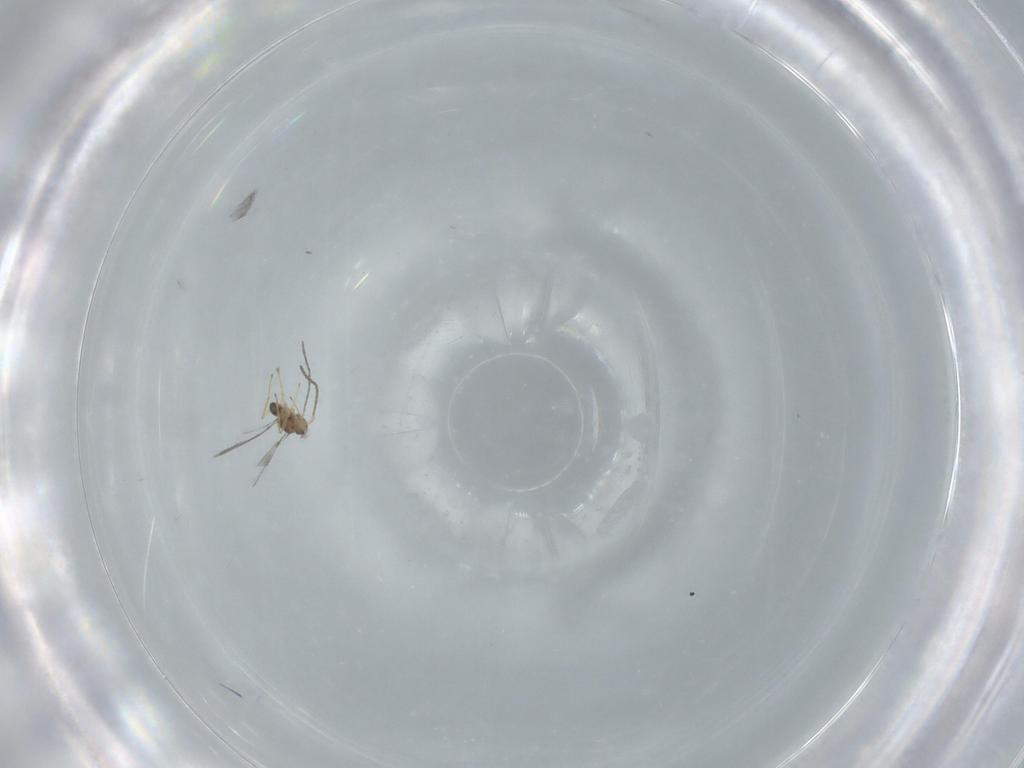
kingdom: Animalia
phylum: Arthropoda
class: Insecta
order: Hymenoptera
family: Mymaridae
